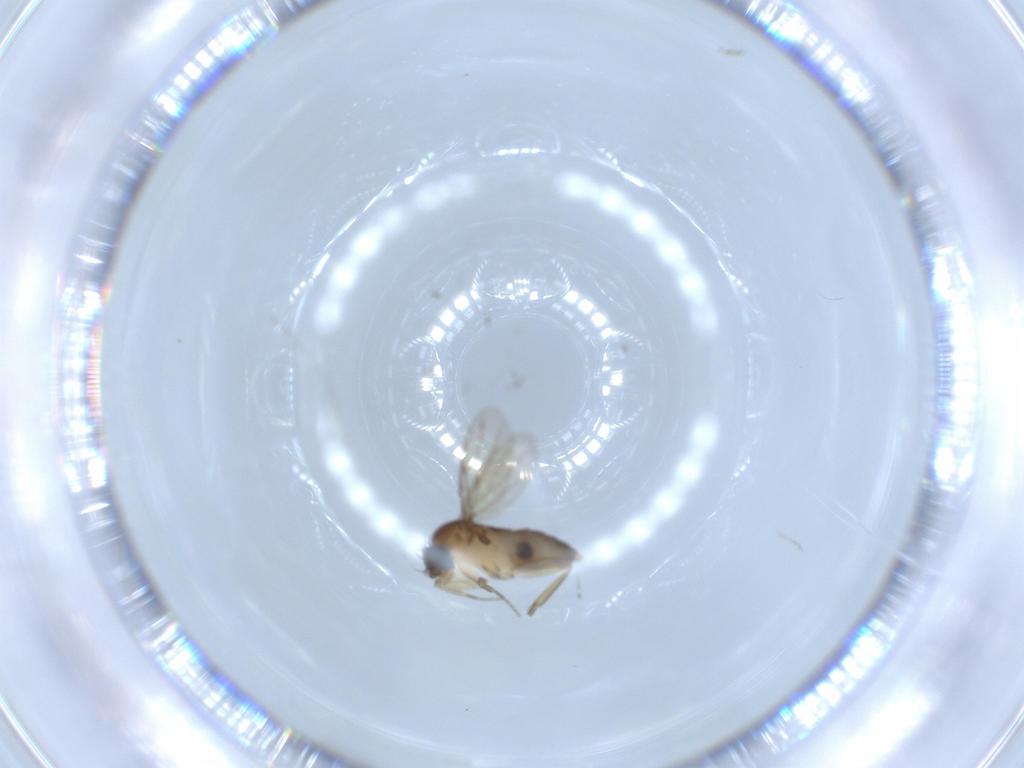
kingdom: Animalia
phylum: Arthropoda
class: Insecta
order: Diptera
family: Phoridae
